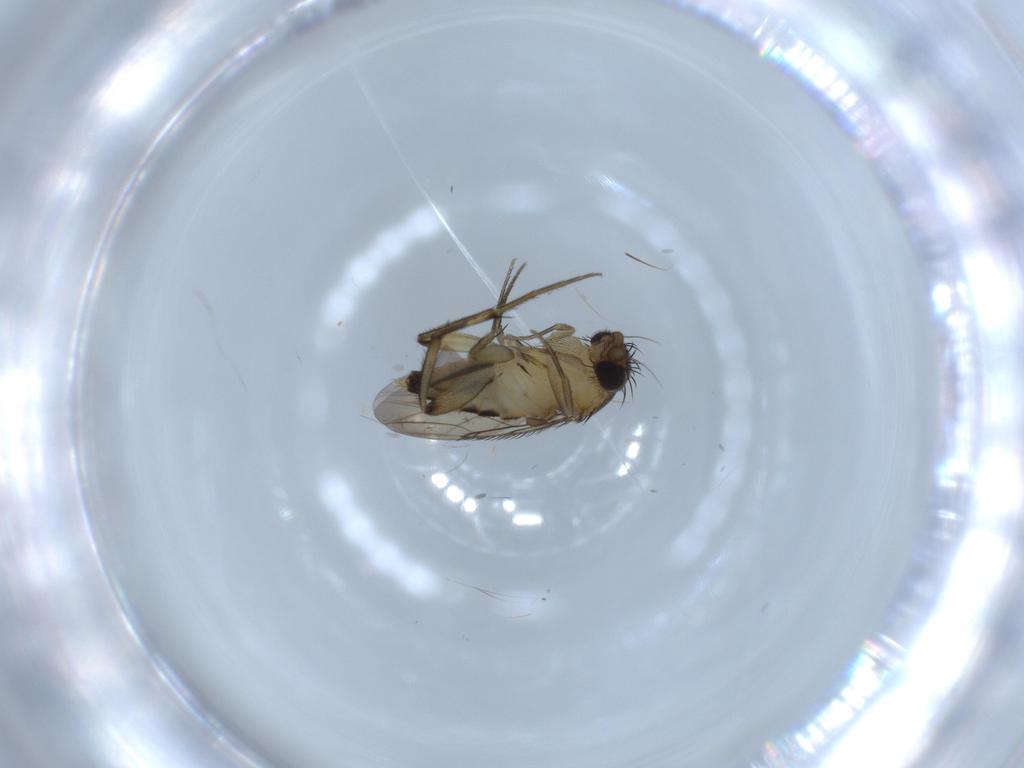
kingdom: Animalia
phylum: Arthropoda
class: Insecta
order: Diptera
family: Phoridae
